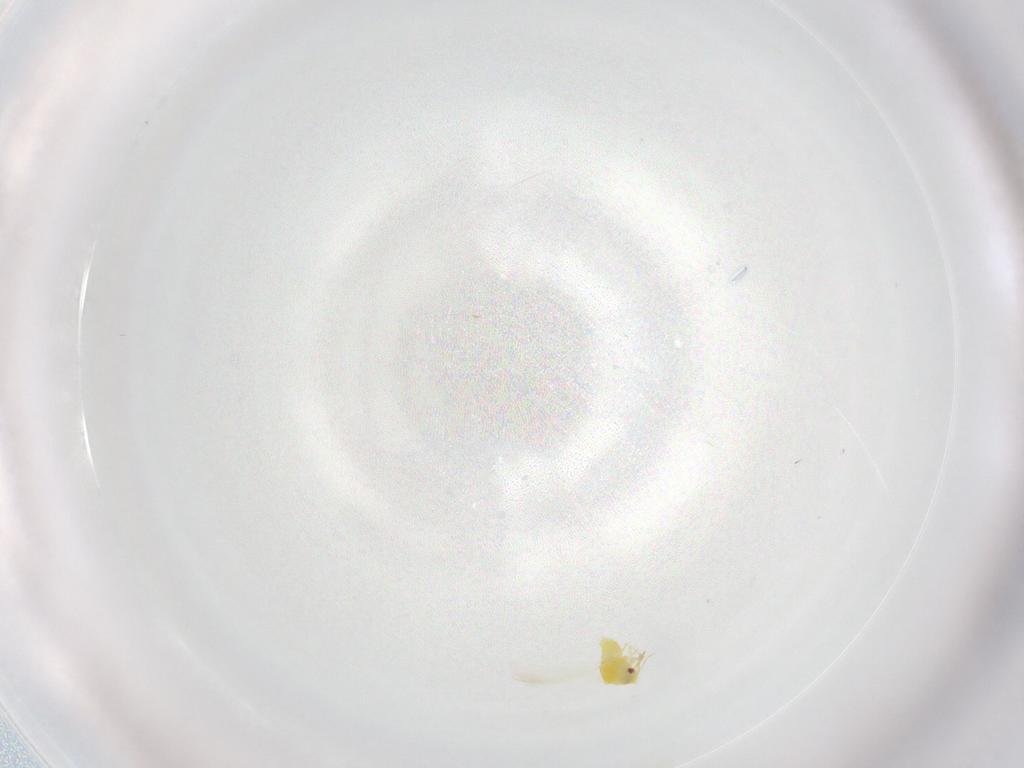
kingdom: Animalia
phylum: Arthropoda
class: Insecta
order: Hemiptera
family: Aleyrodidae
